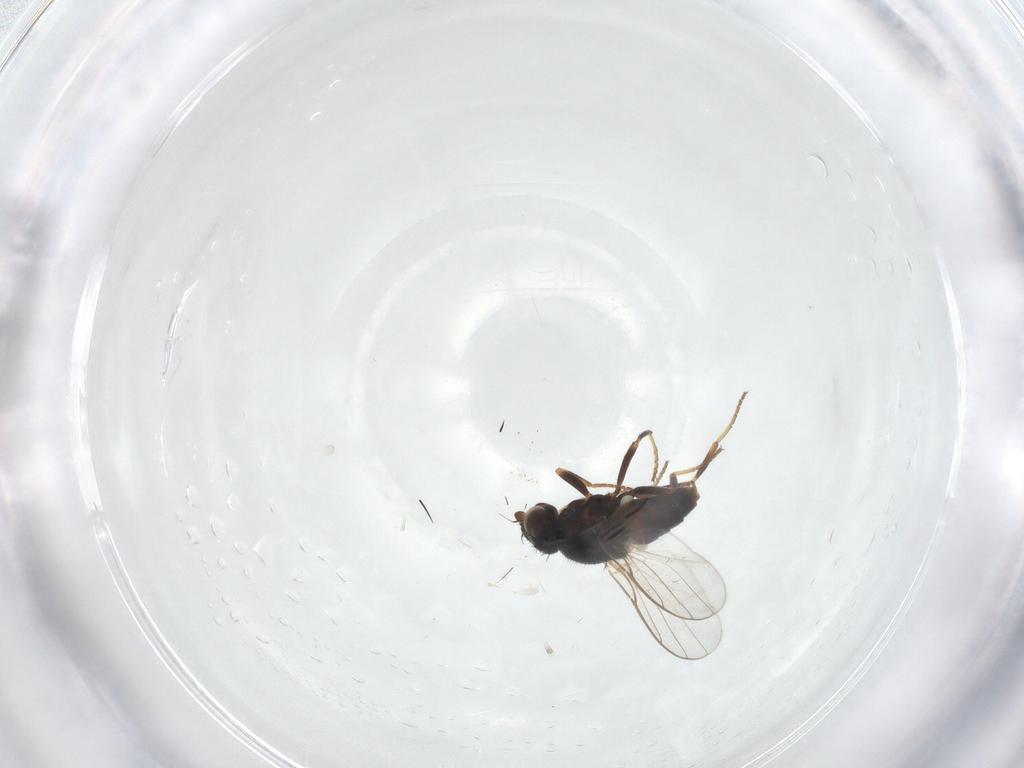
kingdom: Animalia
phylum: Arthropoda
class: Insecta
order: Diptera
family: Chloropidae
